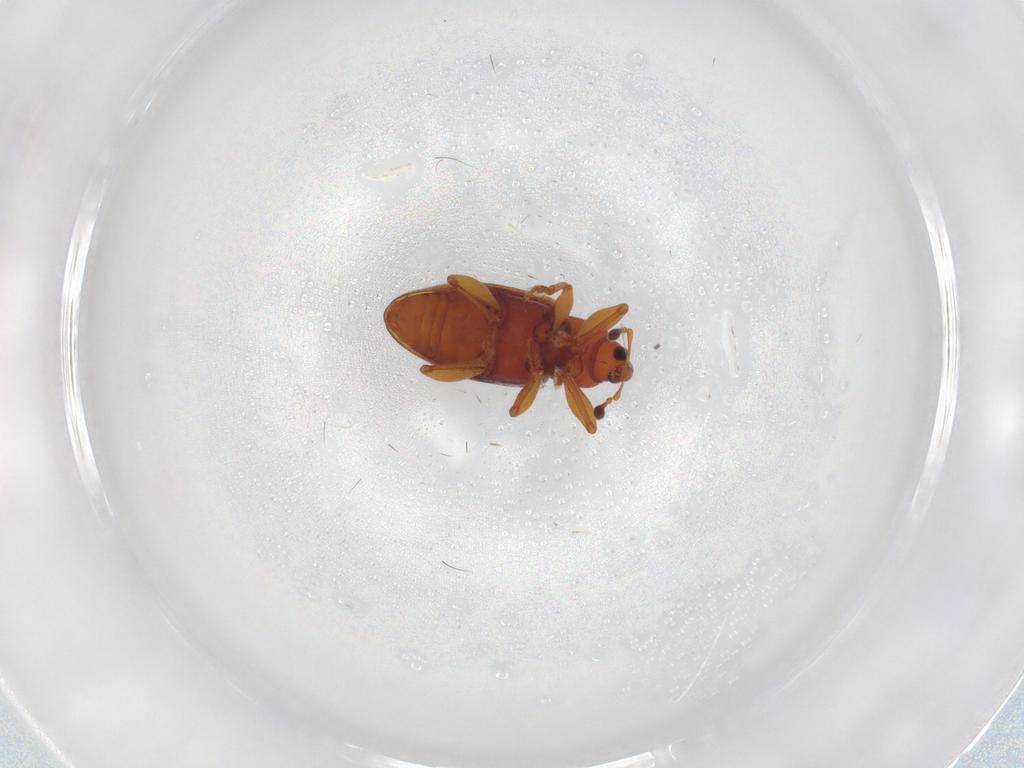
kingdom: Animalia
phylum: Arthropoda
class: Insecta
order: Coleoptera
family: Curculionidae
